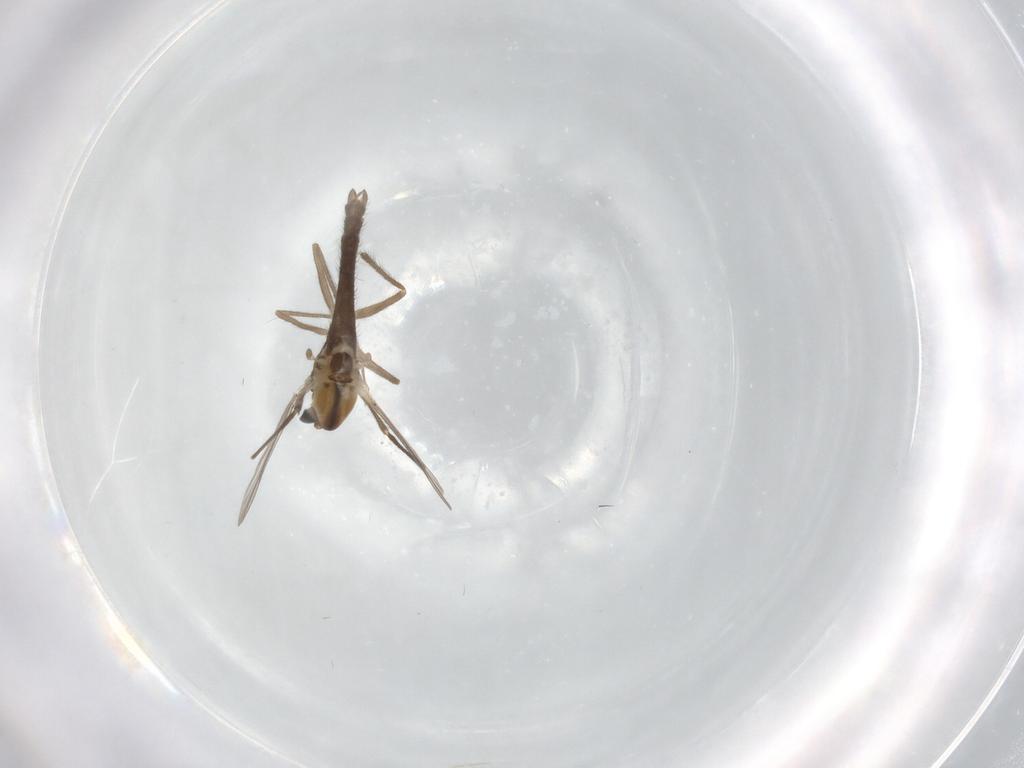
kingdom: Animalia
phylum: Arthropoda
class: Insecta
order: Diptera
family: Chironomidae
